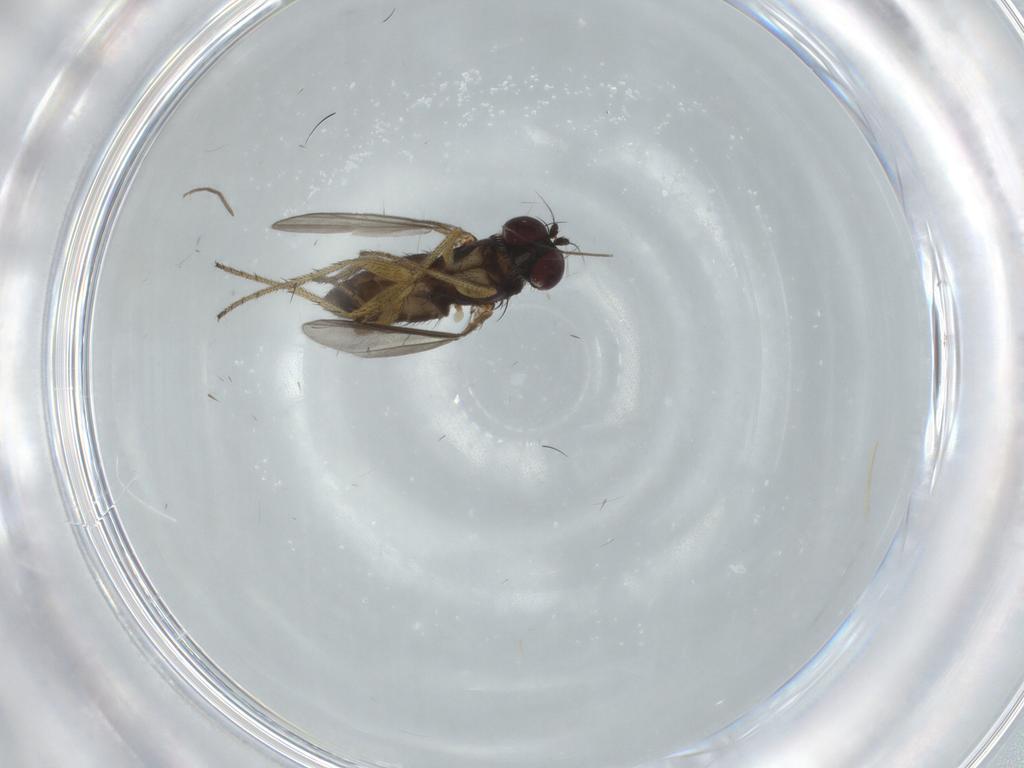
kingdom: Animalia
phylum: Arthropoda
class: Insecta
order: Diptera
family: Dolichopodidae
